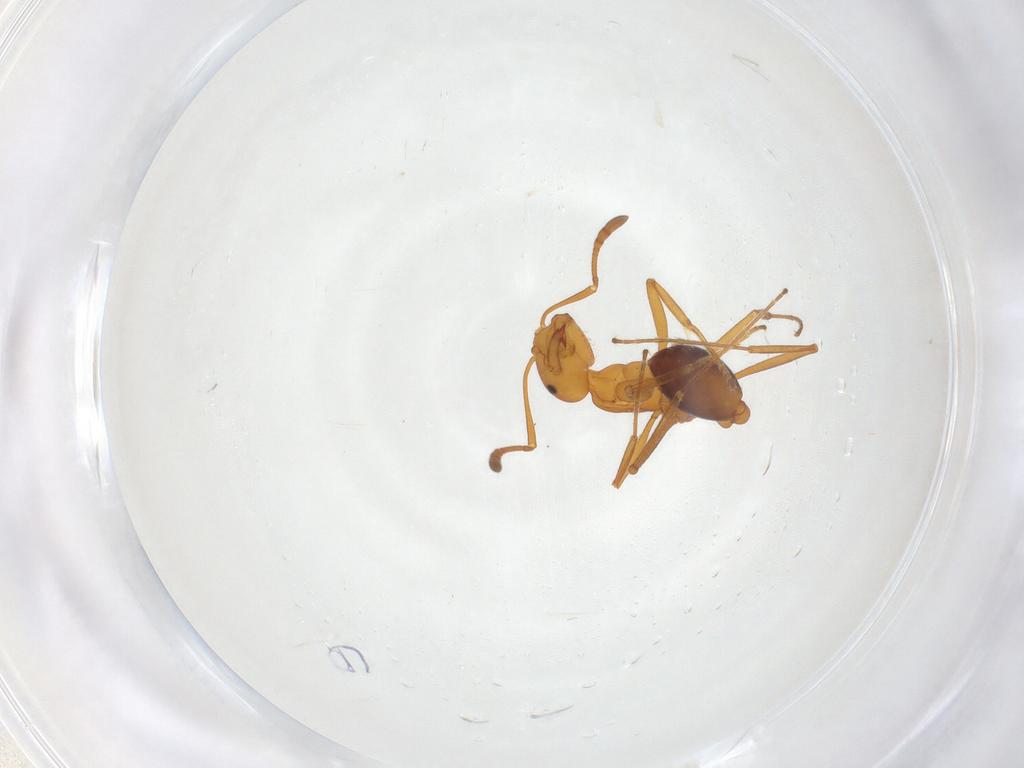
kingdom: Animalia
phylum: Arthropoda
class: Insecta
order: Hymenoptera
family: Formicidae
